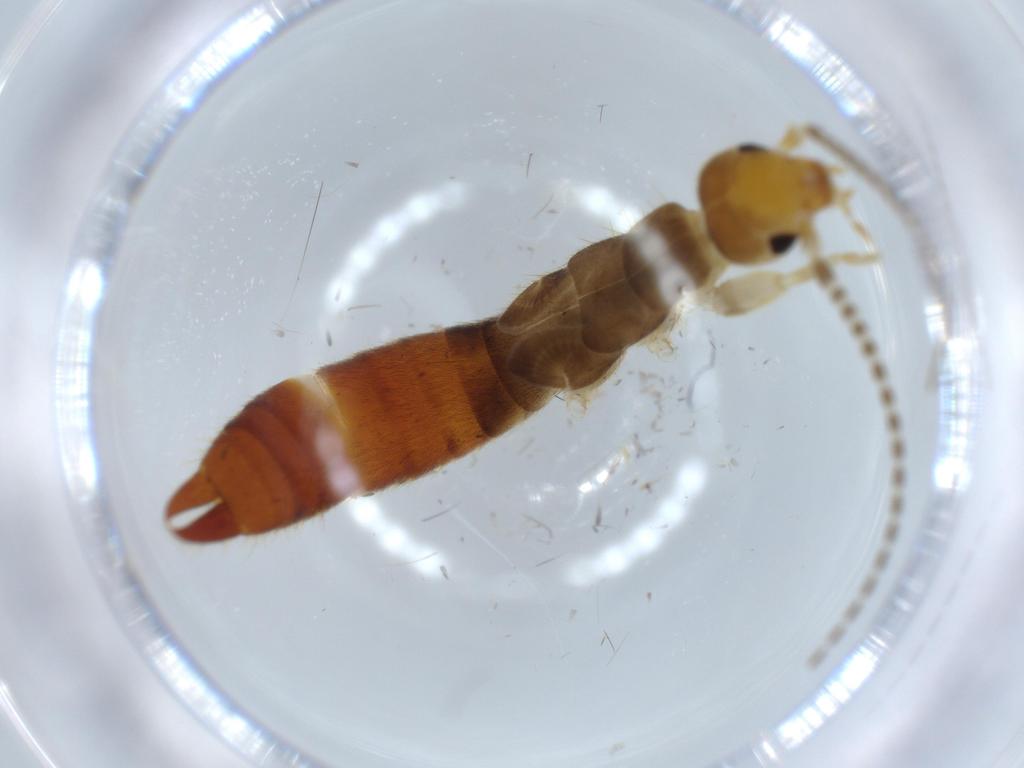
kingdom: Animalia
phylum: Arthropoda
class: Insecta
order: Dermaptera
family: Forficulidae
